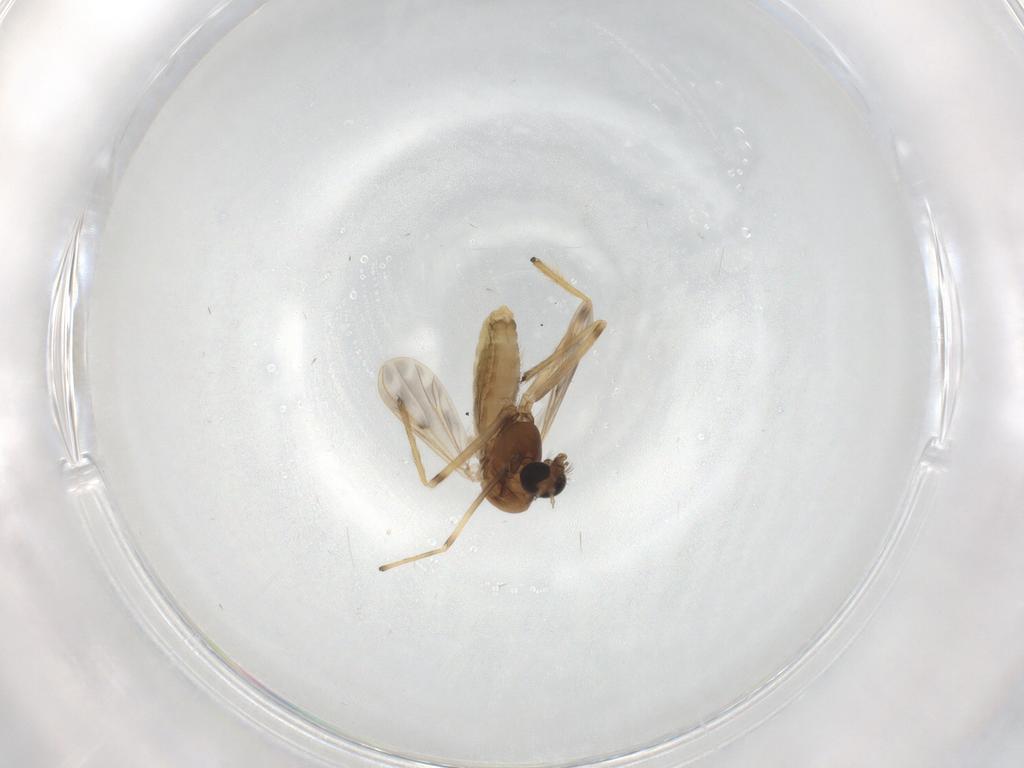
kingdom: Animalia
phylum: Arthropoda
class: Insecta
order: Diptera
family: Chironomidae
